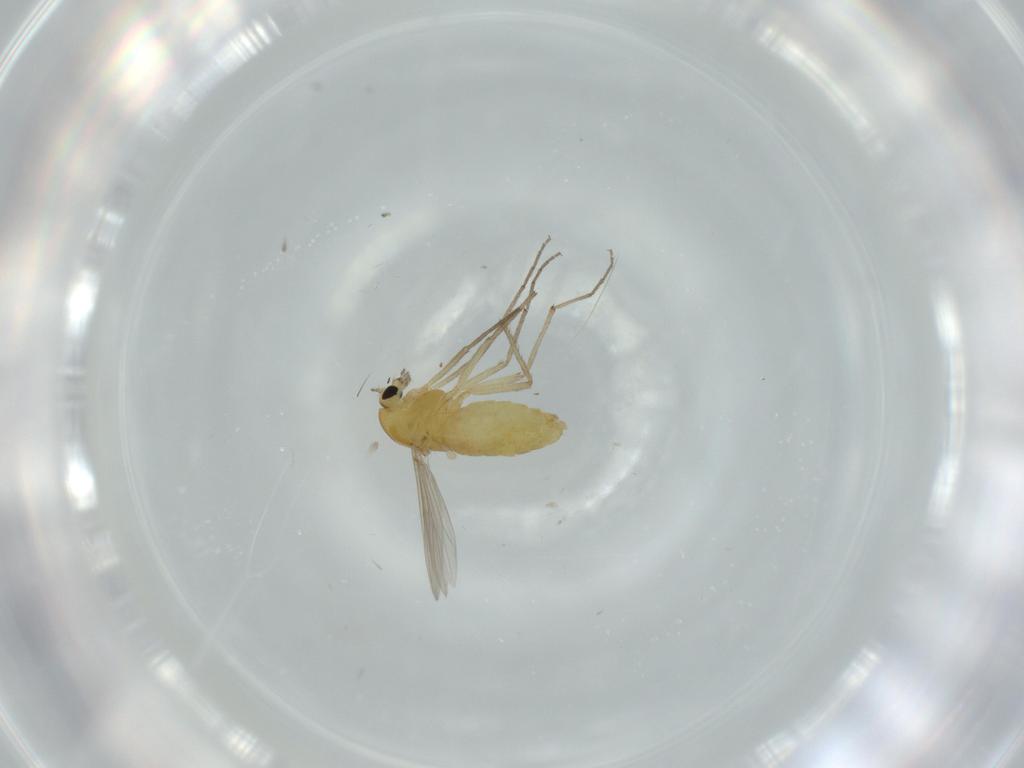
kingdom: Animalia
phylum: Arthropoda
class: Insecta
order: Diptera
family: Chironomidae
